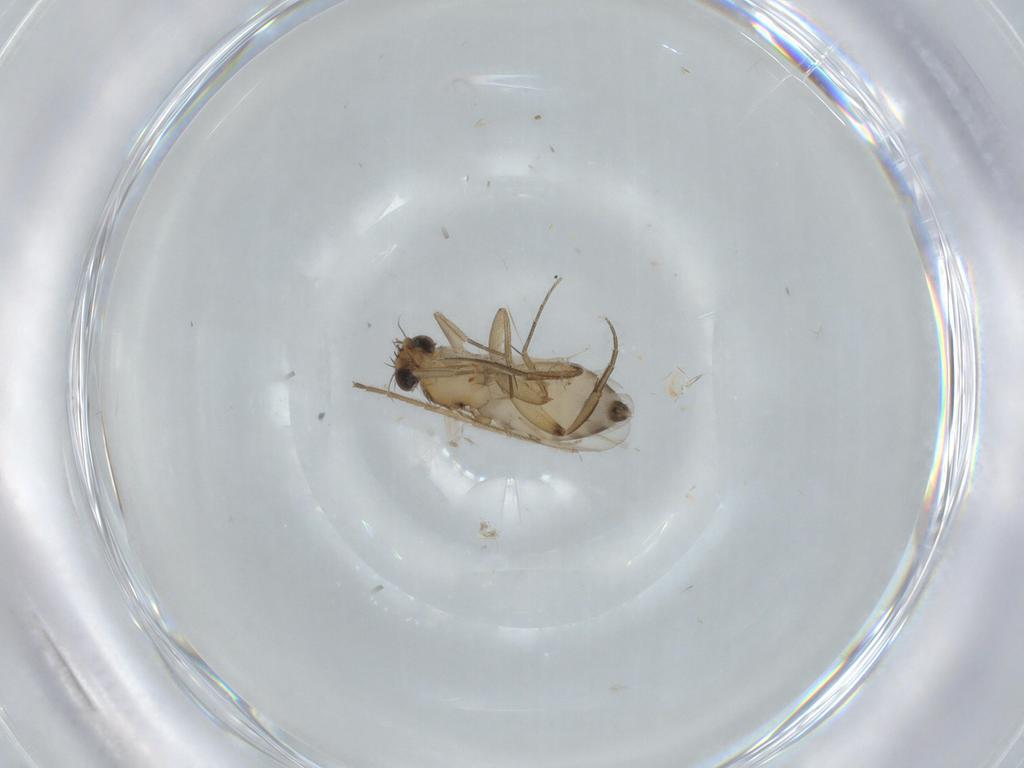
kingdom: Animalia
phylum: Arthropoda
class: Insecta
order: Diptera
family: Phoridae
